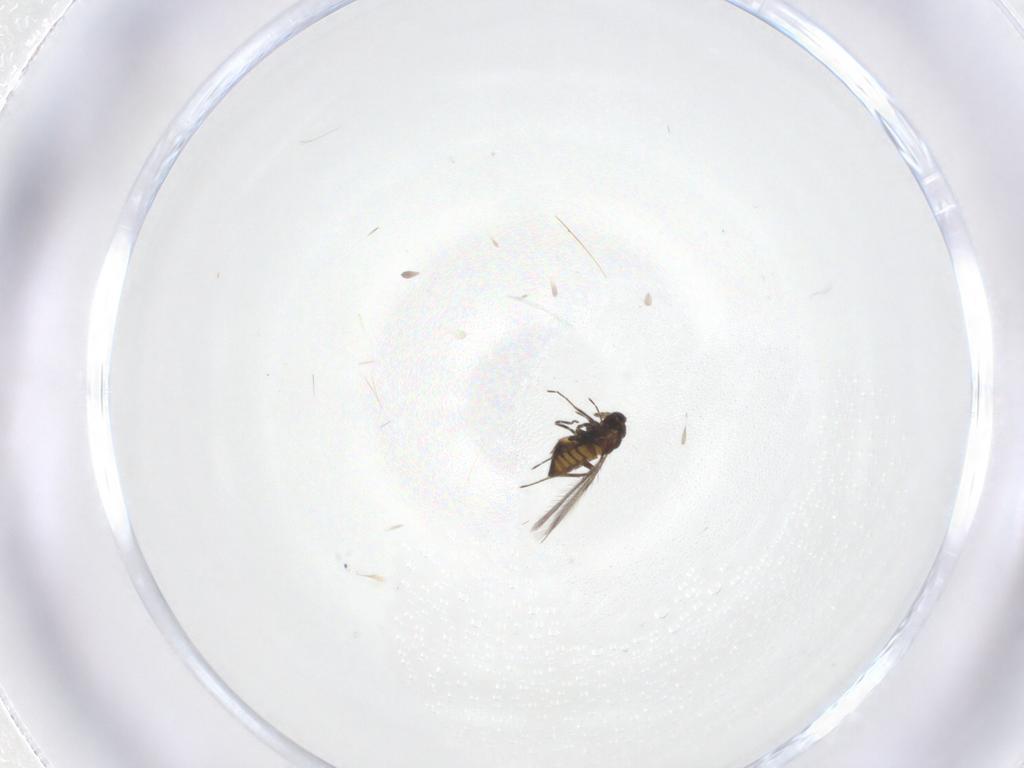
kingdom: Animalia
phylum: Arthropoda
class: Insecta
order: Hymenoptera
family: Trichogrammatidae
